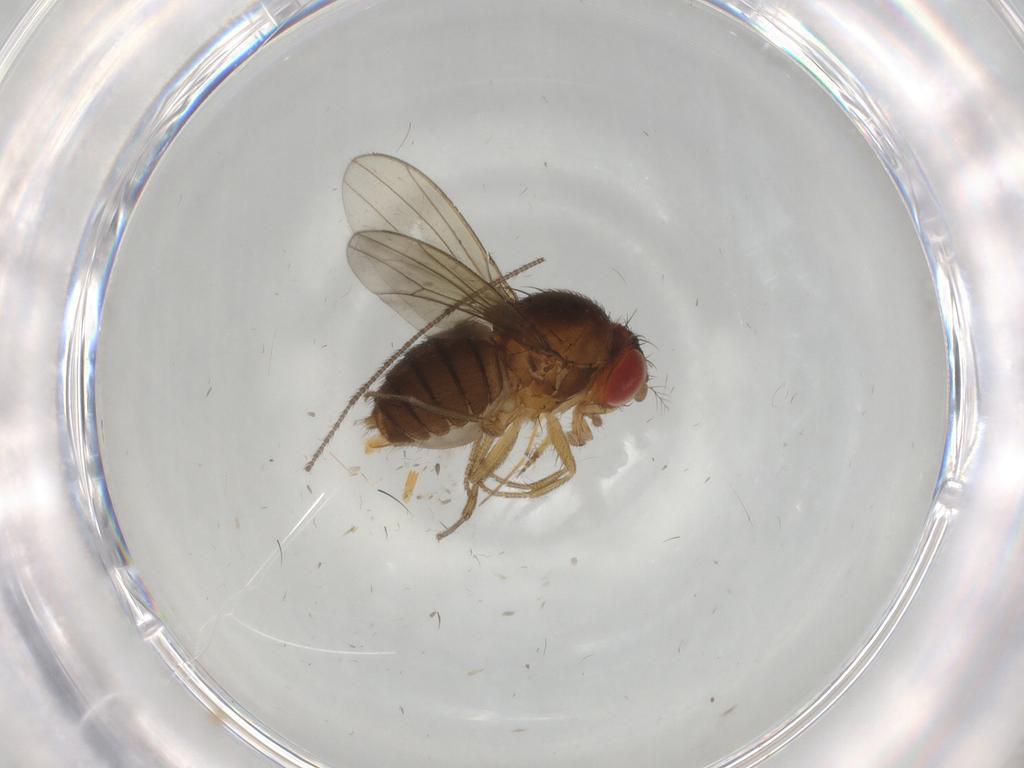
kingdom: Animalia
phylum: Arthropoda
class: Insecta
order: Diptera
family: Drosophilidae
